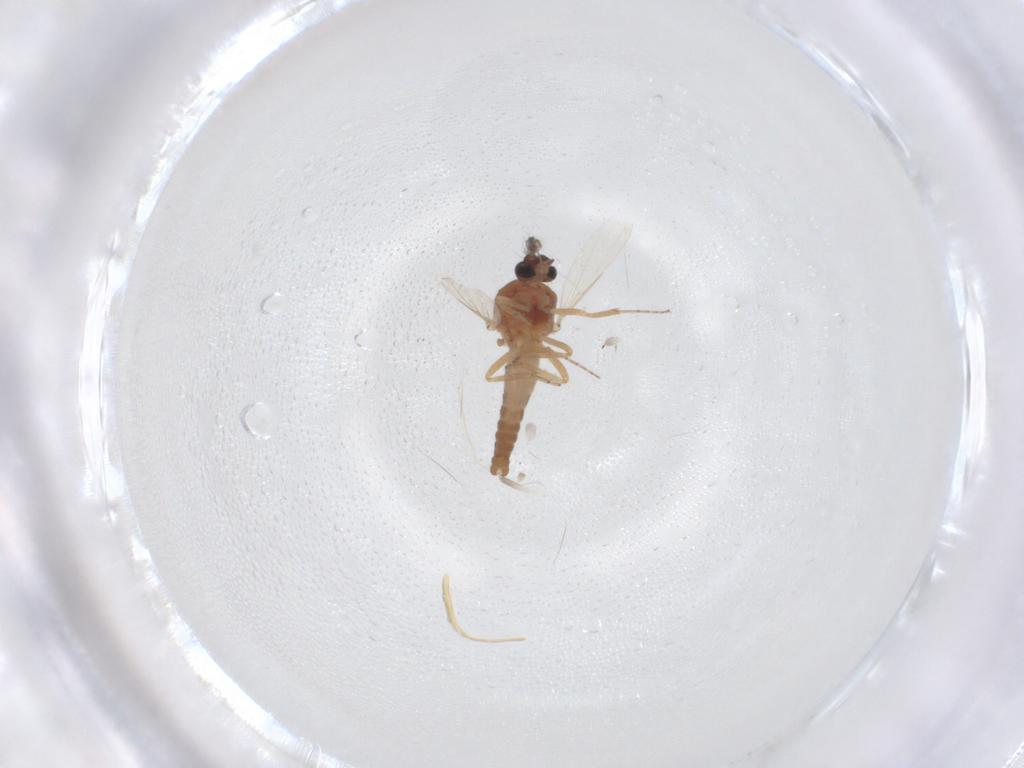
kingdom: Animalia
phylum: Arthropoda
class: Insecta
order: Diptera
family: Ceratopogonidae
